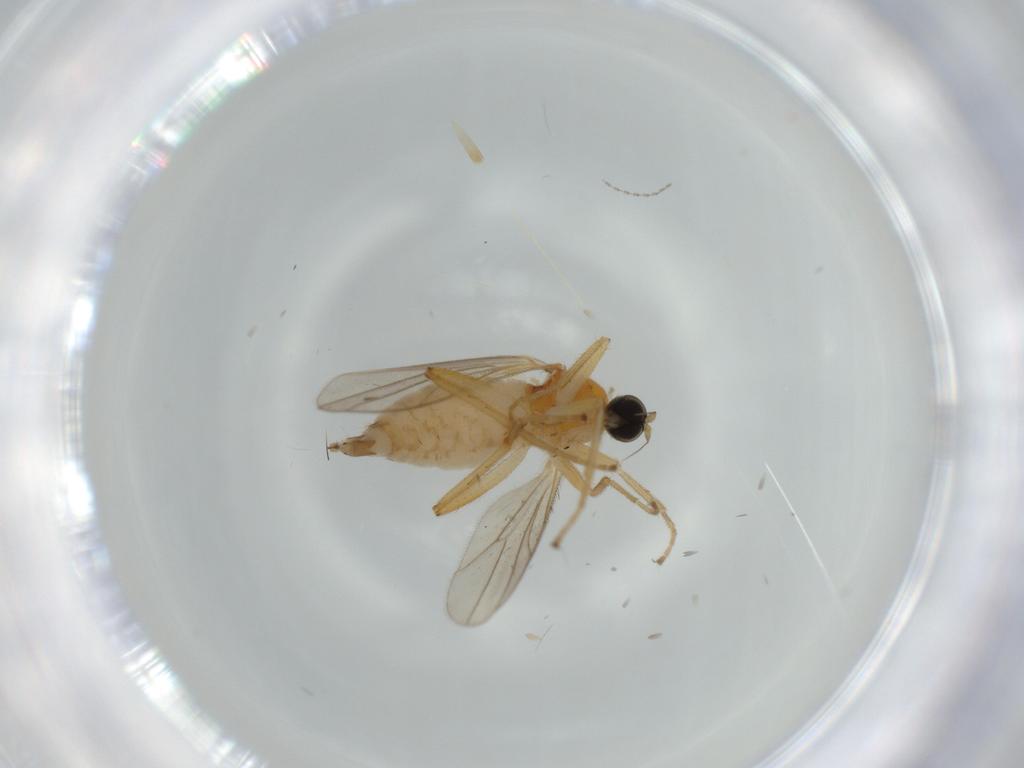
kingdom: Animalia
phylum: Arthropoda
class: Insecta
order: Diptera
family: Hybotidae
